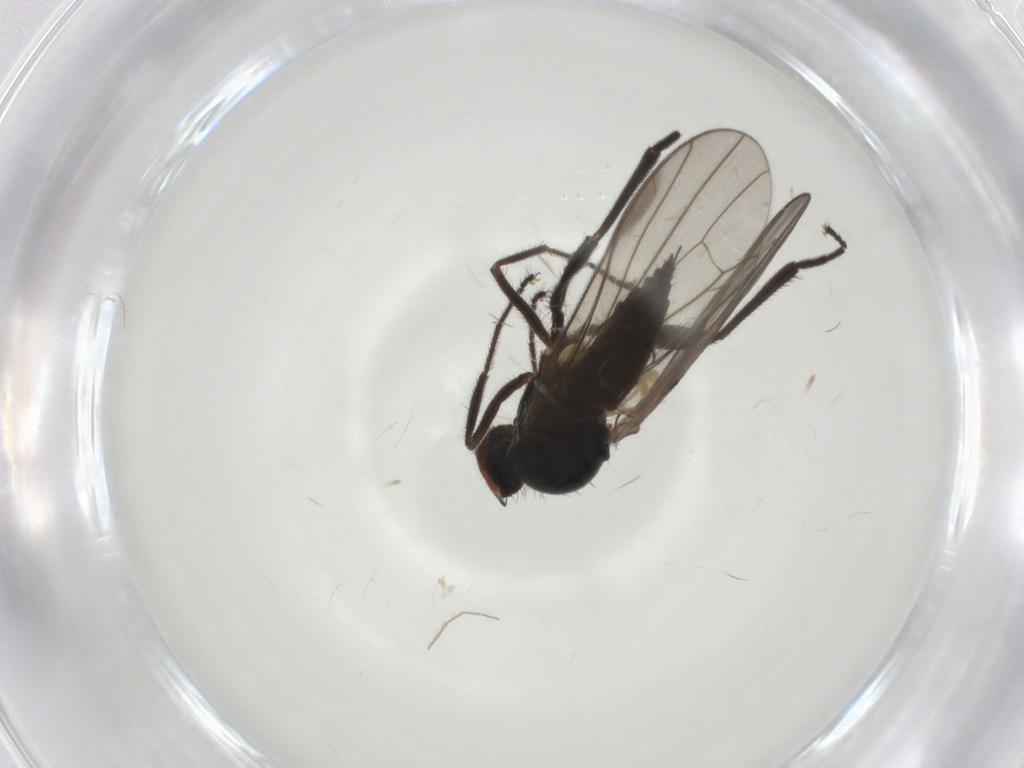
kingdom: Animalia
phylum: Arthropoda
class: Insecta
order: Diptera
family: Hybotidae
